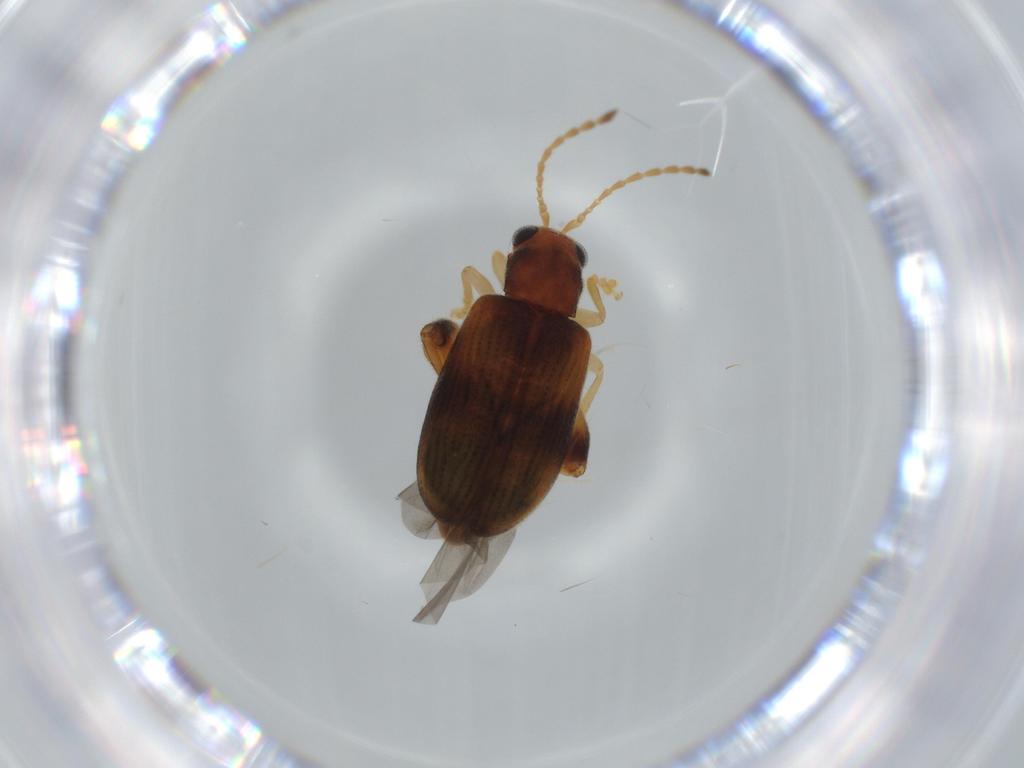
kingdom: Animalia
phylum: Arthropoda
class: Insecta
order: Coleoptera
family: Chrysomelidae
